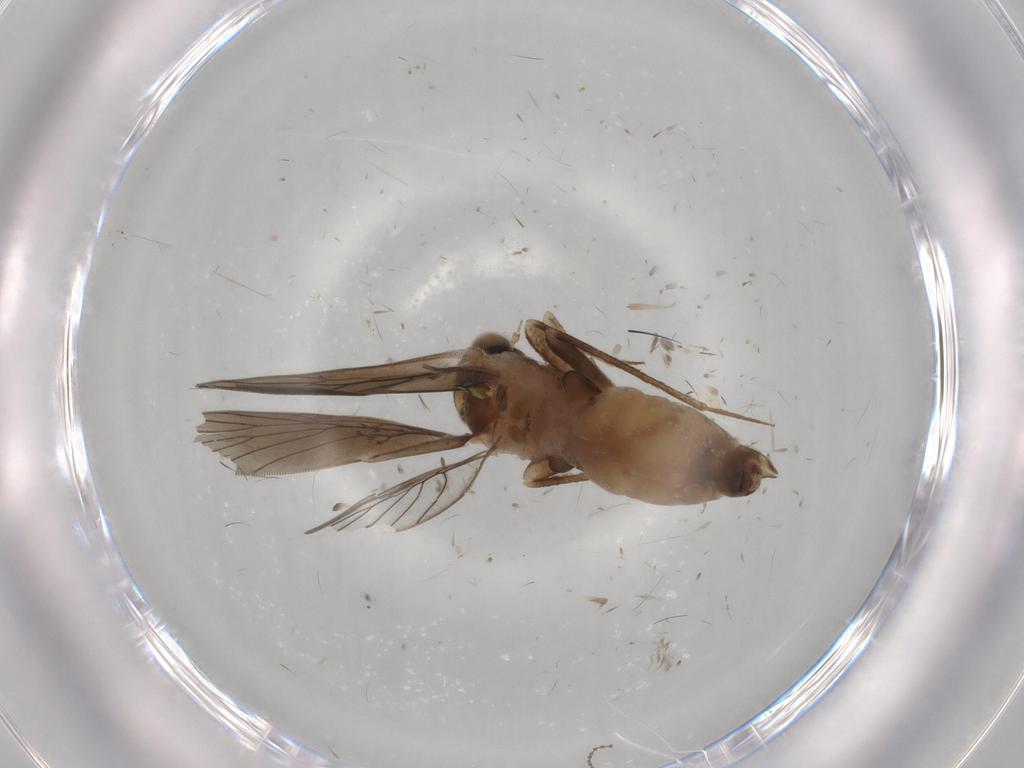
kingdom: Animalia
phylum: Arthropoda
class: Insecta
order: Psocodea
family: Lepidopsocidae
